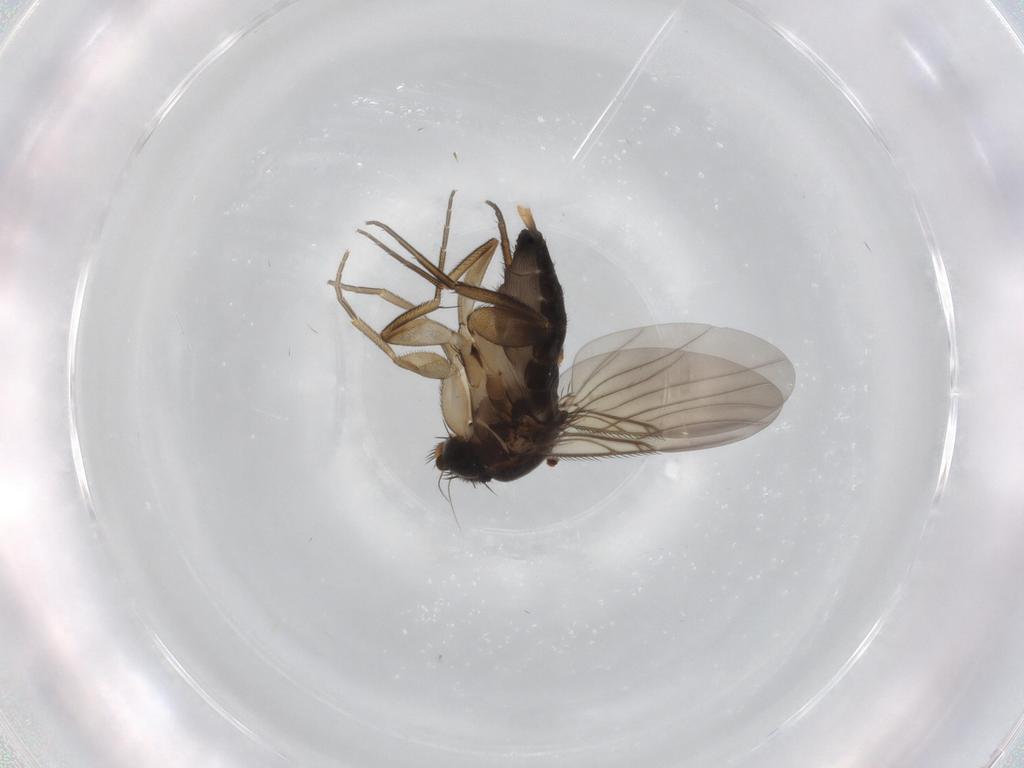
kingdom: Animalia
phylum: Arthropoda
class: Insecta
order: Diptera
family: Phoridae
